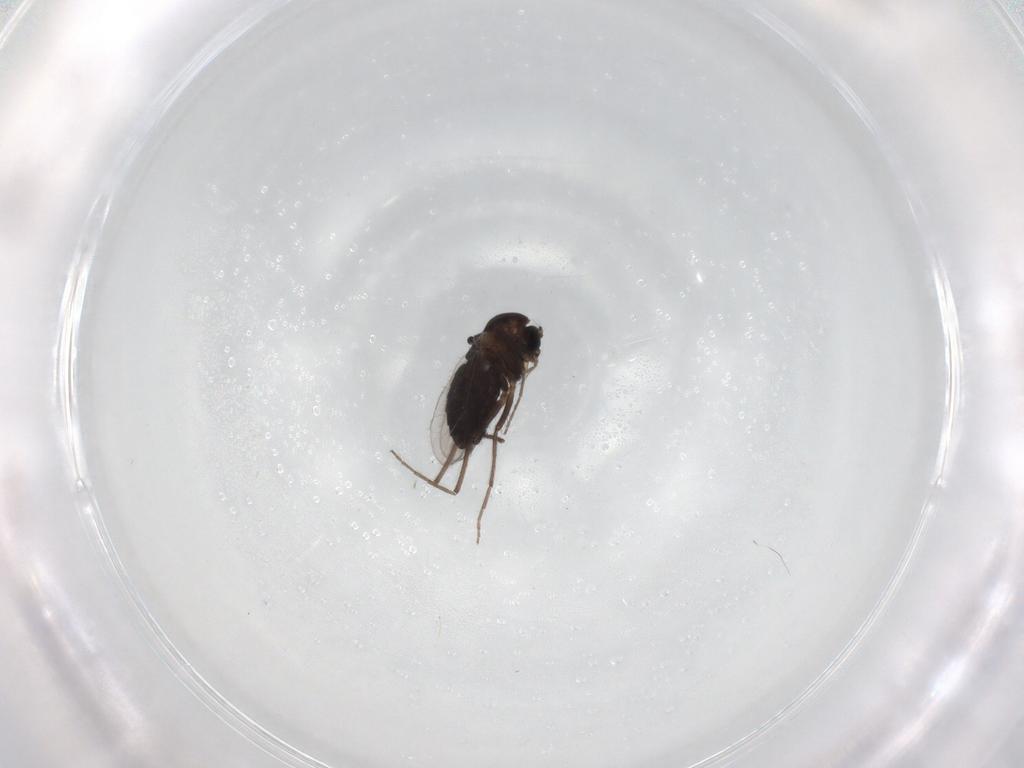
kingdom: Animalia
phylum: Arthropoda
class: Insecta
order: Diptera
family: Chironomidae
